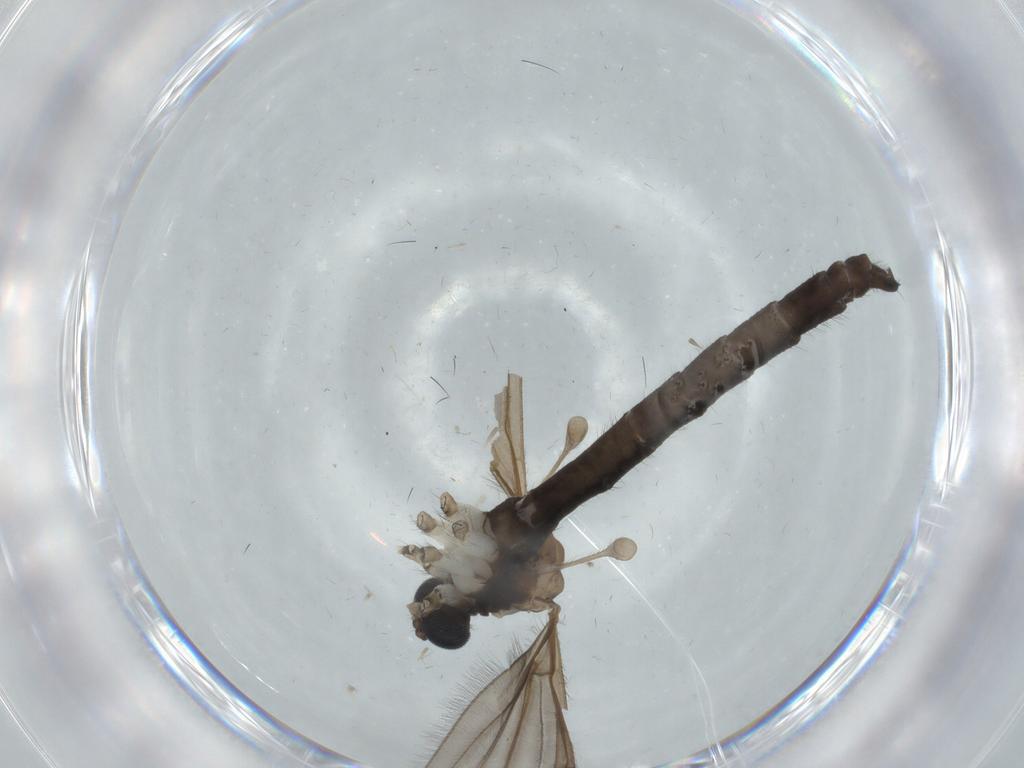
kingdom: Animalia
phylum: Arthropoda
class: Insecta
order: Diptera
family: Chironomidae
